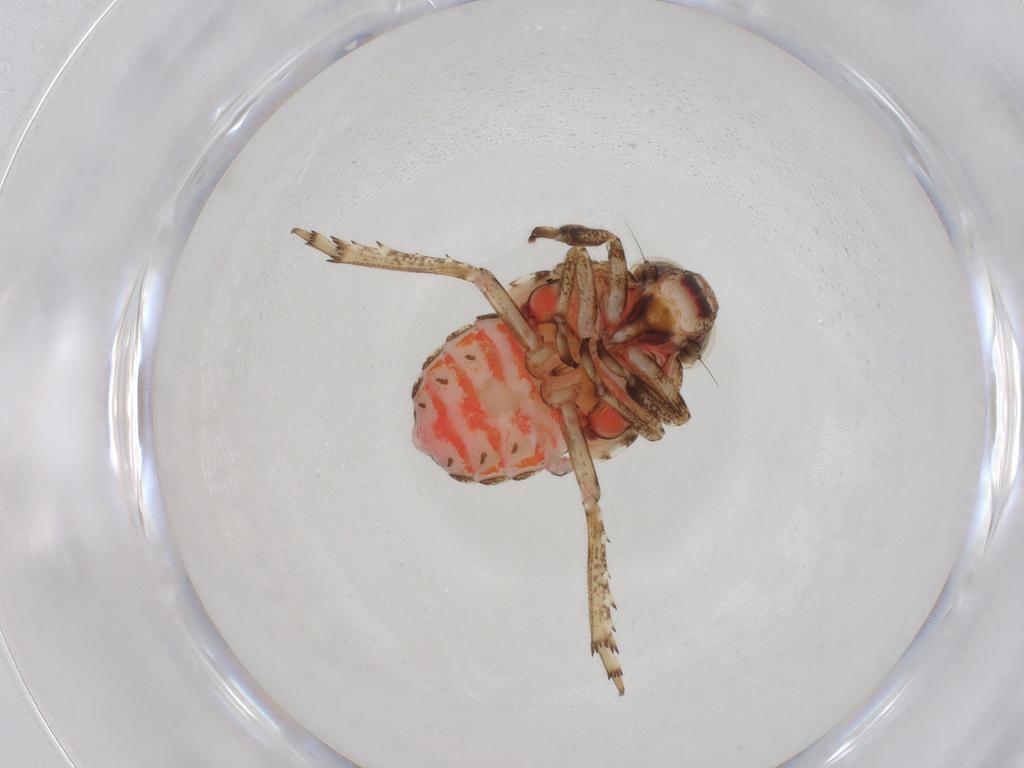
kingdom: Animalia
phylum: Arthropoda
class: Insecta
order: Hemiptera
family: Issidae
